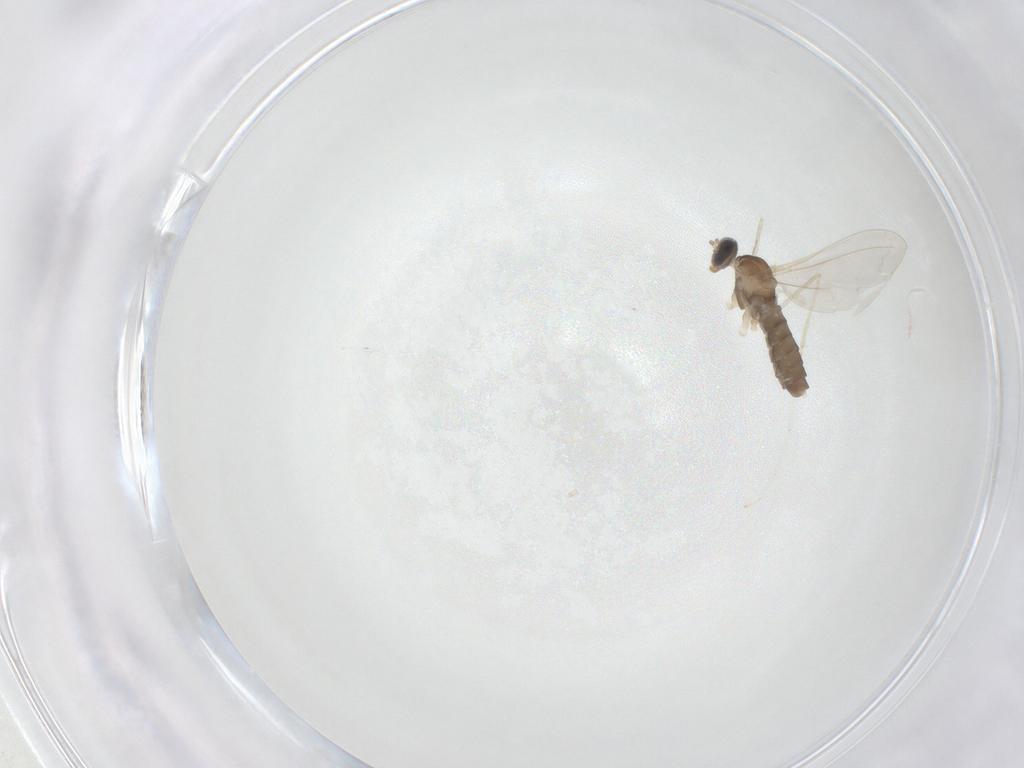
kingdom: Animalia
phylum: Arthropoda
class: Insecta
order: Diptera
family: Cecidomyiidae
